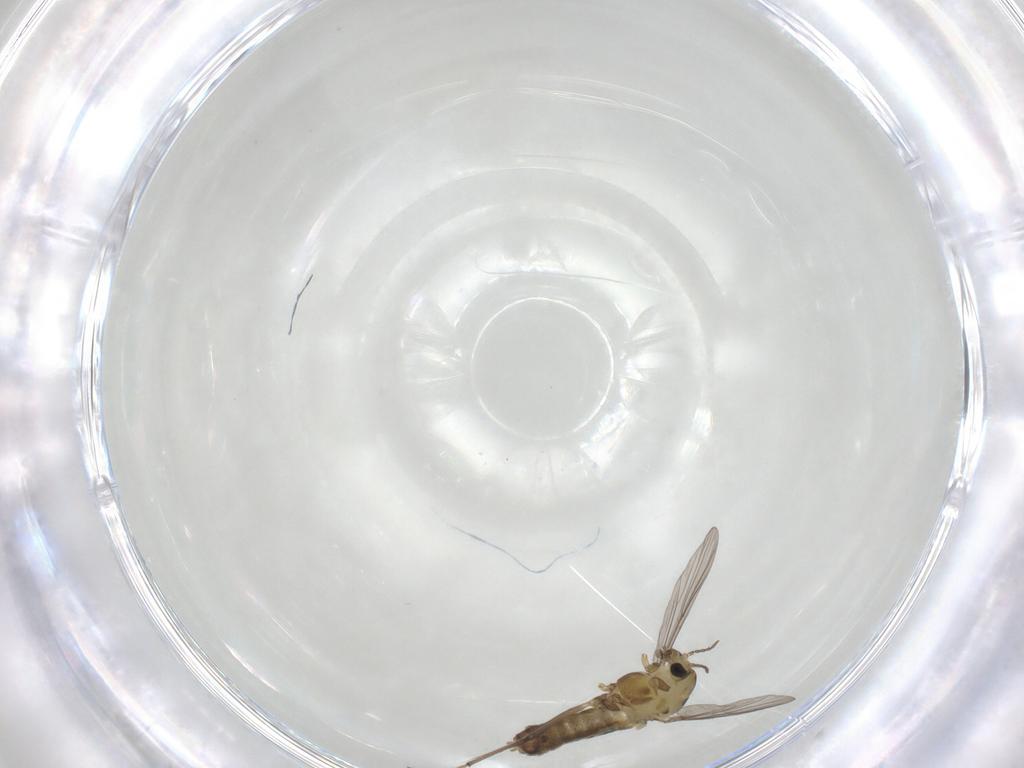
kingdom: Animalia
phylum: Arthropoda
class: Insecta
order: Diptera
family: Chironomidae
